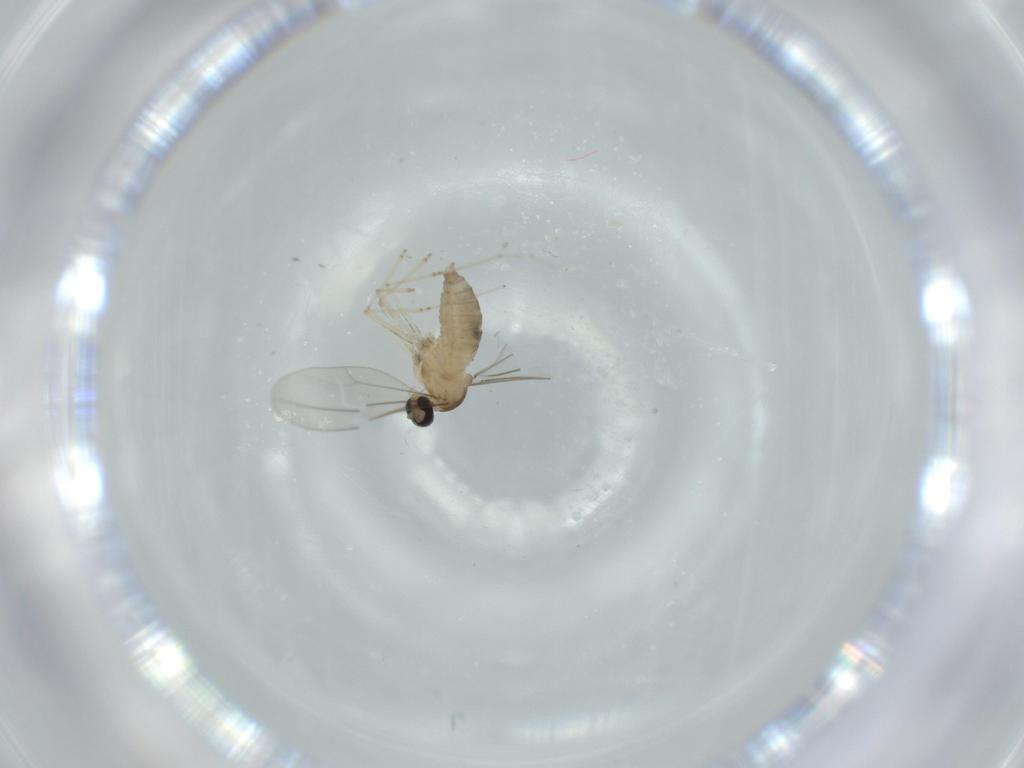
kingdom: Animalia
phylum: Arthropoda
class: Insecta
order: Diptera
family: Cecidomyiidae
